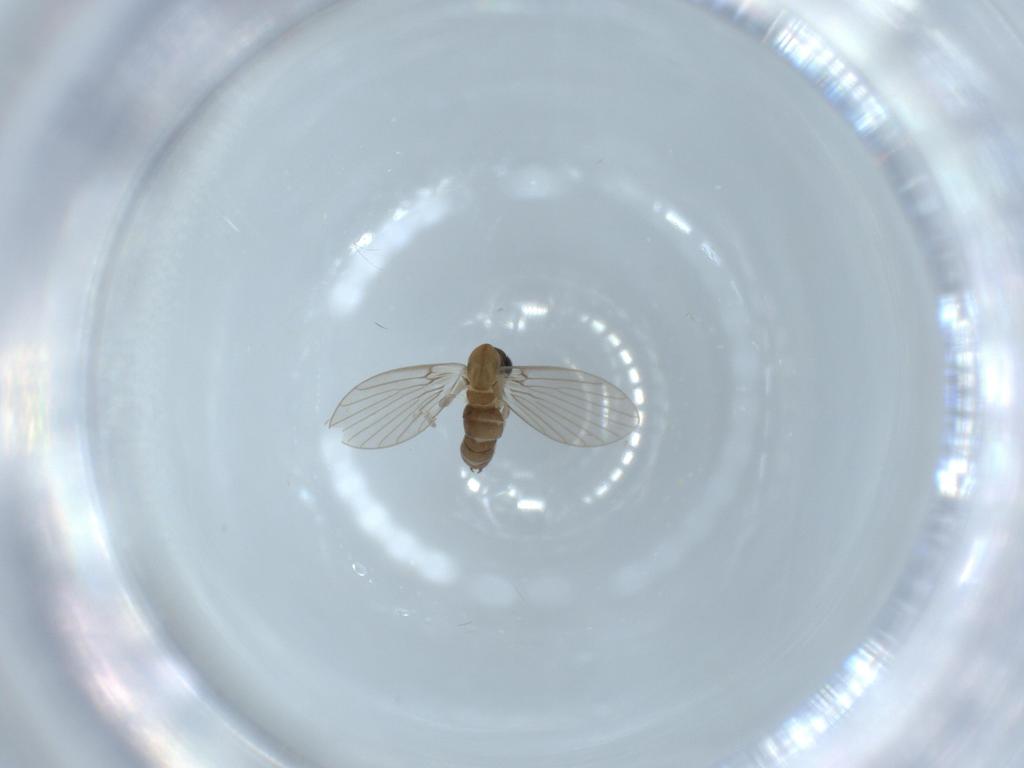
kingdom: Animalia
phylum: Arthropoda
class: Insecta
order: Diptera
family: Psychodidae
